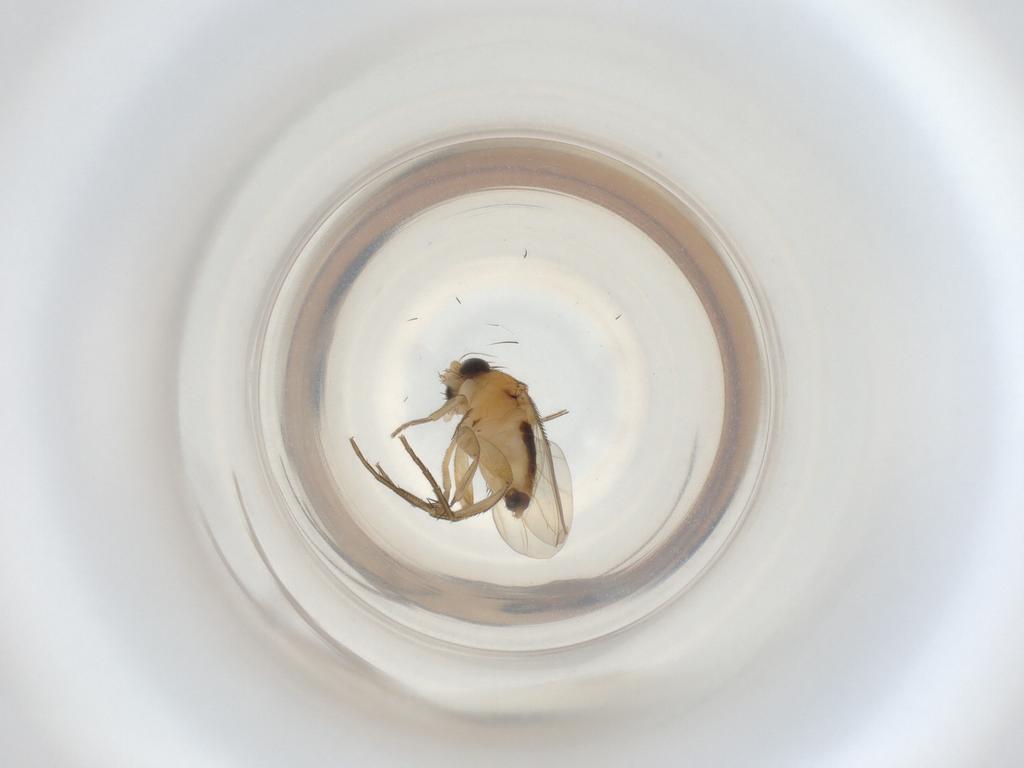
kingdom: Animalia
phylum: Arthropoda
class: Insecta
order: Diptera
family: Phoridae
